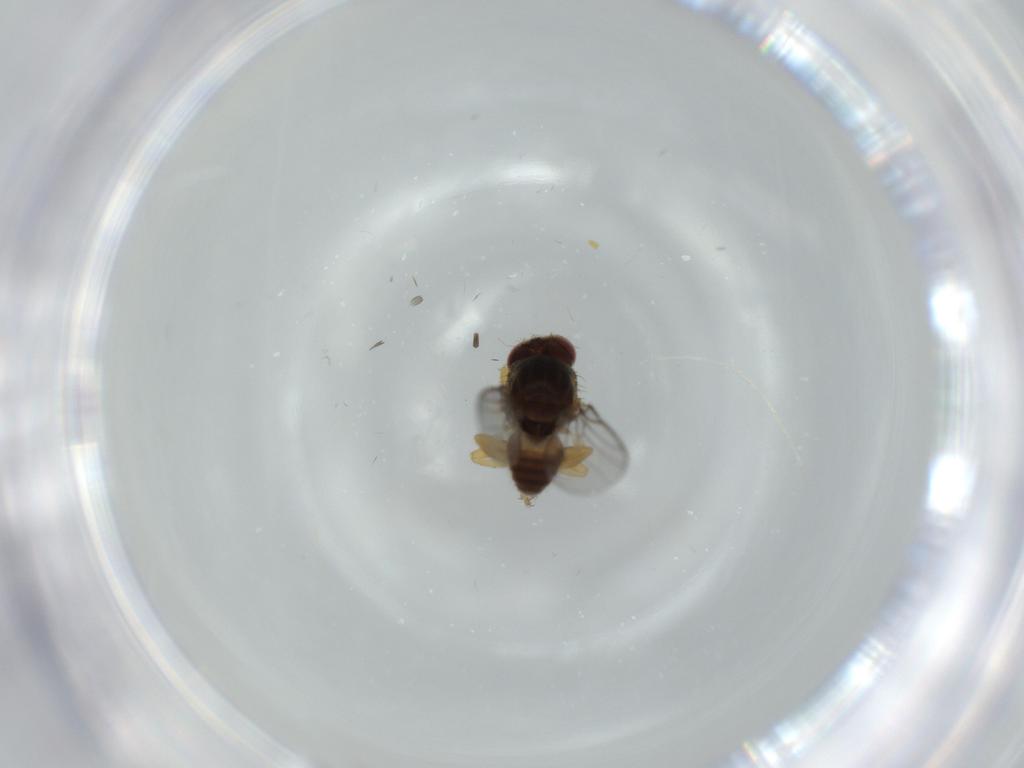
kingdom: Animalia
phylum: Arthropoda
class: Insecta
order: Diptera
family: Chloropidae
